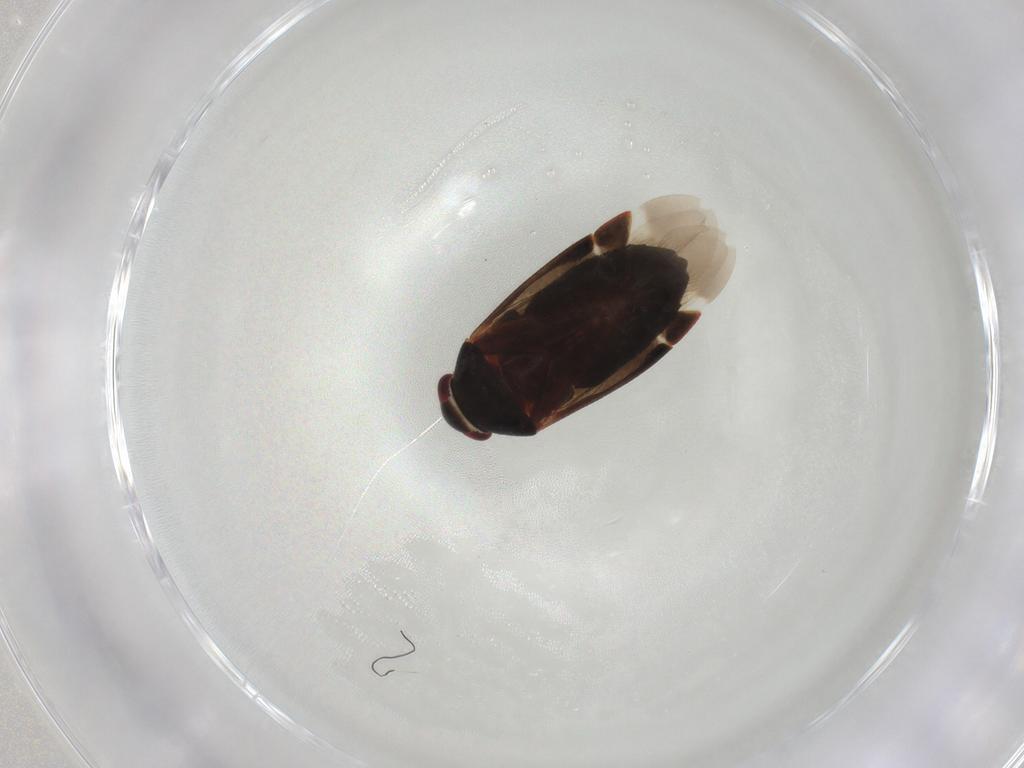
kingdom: Animalia
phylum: Arthropoda
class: Insecta
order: Hemiptera
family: Miridae
